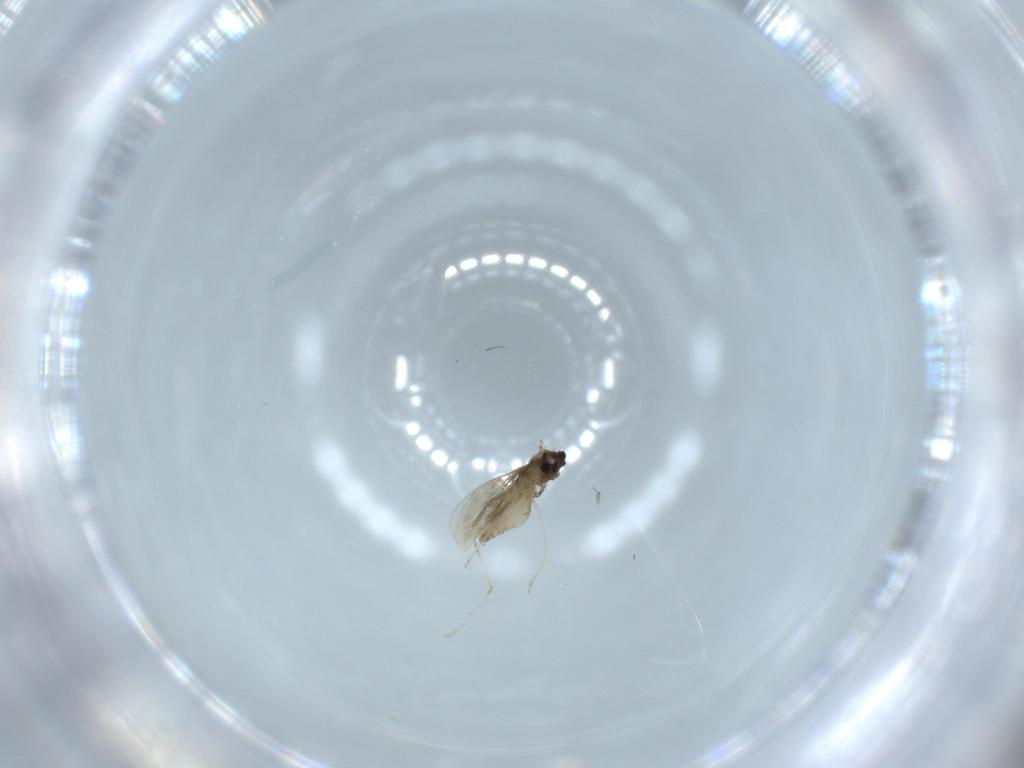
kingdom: Animalia
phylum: Arthropoda
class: Insecta
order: Diptera
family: Cecidomyiidae
